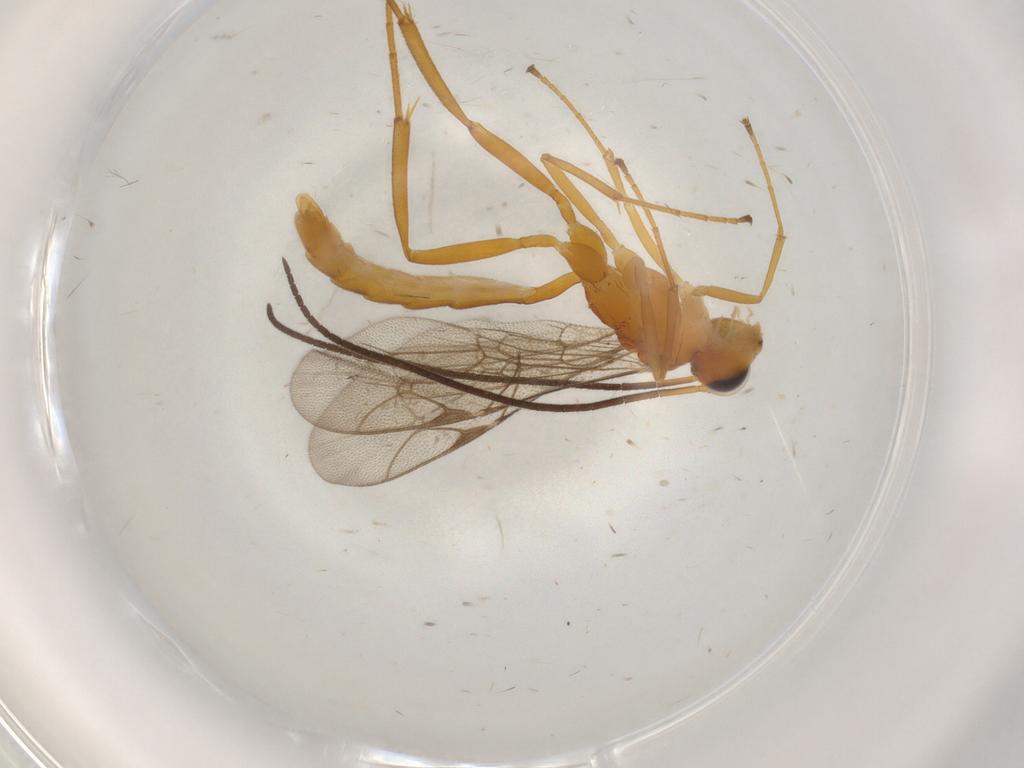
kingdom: Animalia
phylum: Arthropoda
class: Insecta
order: Hymenoptera
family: Ichneumonidae
